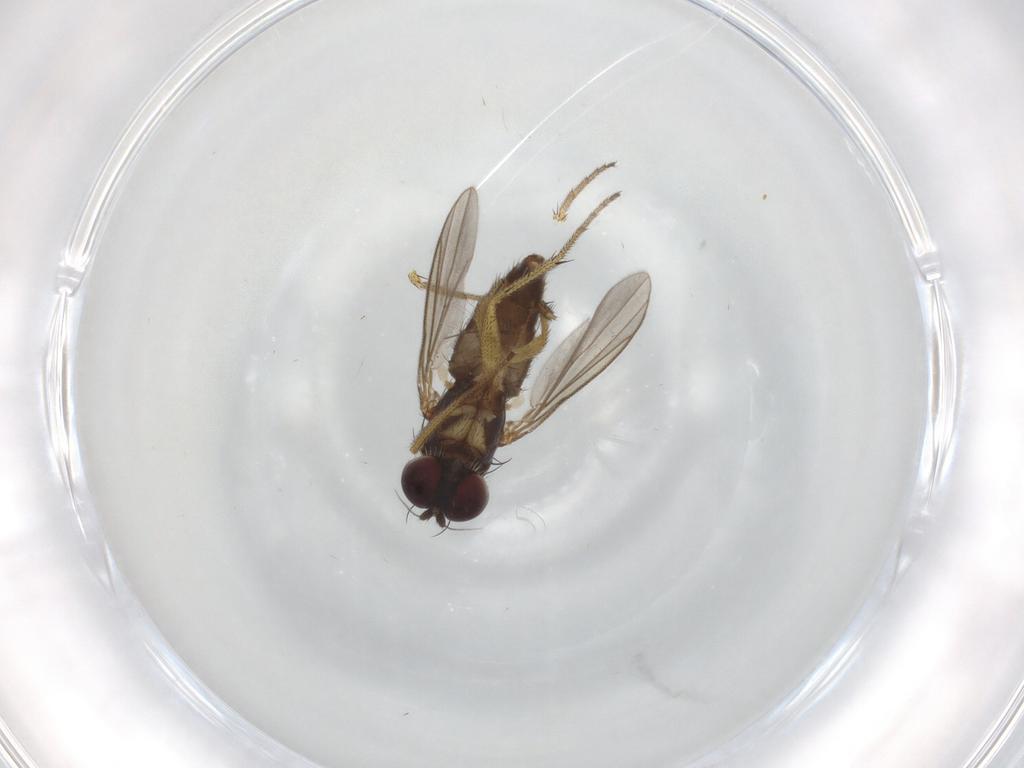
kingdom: Animalia
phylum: Arthropoda
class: Insecta
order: Diptera
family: Dolichopodidae
